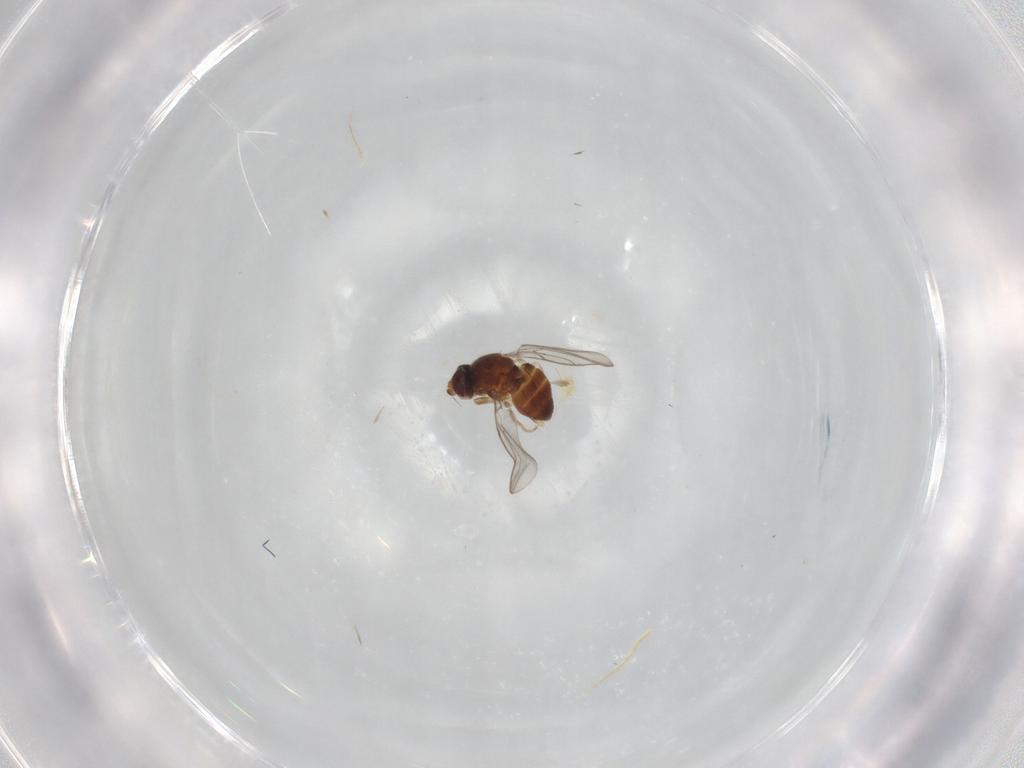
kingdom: Animalia
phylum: Arthropoda
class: Insecta
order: Diptera
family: Chloropidae
